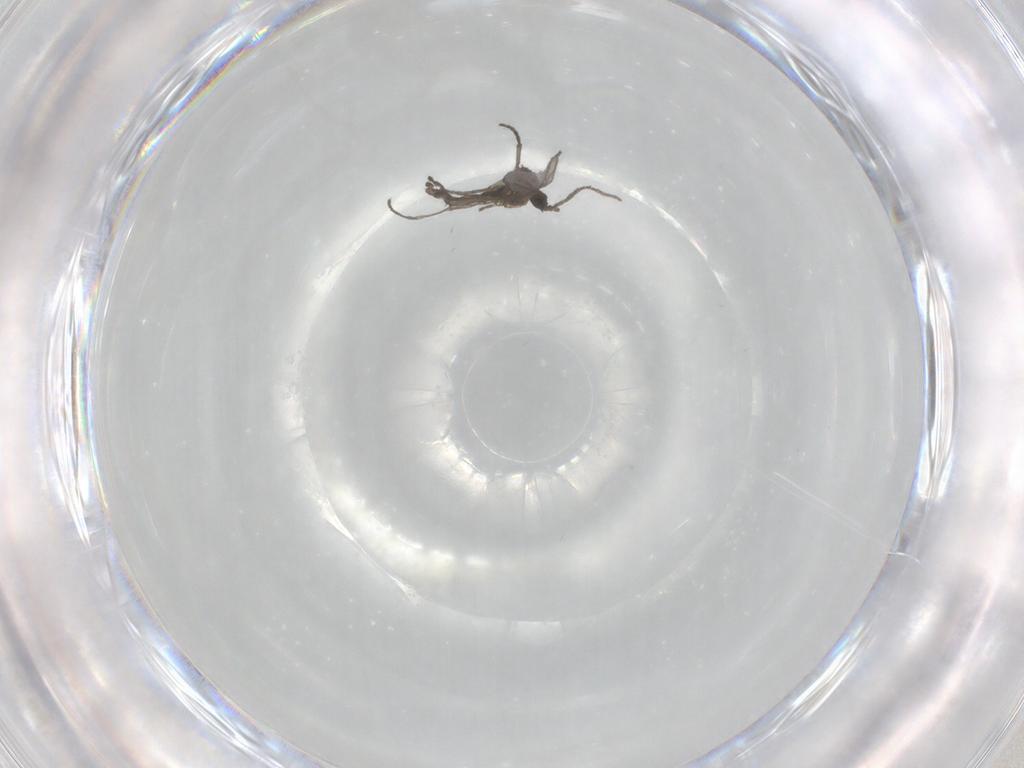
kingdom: Animalia
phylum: Arthropoda
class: Insecta
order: Diptera
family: Sciaridae
